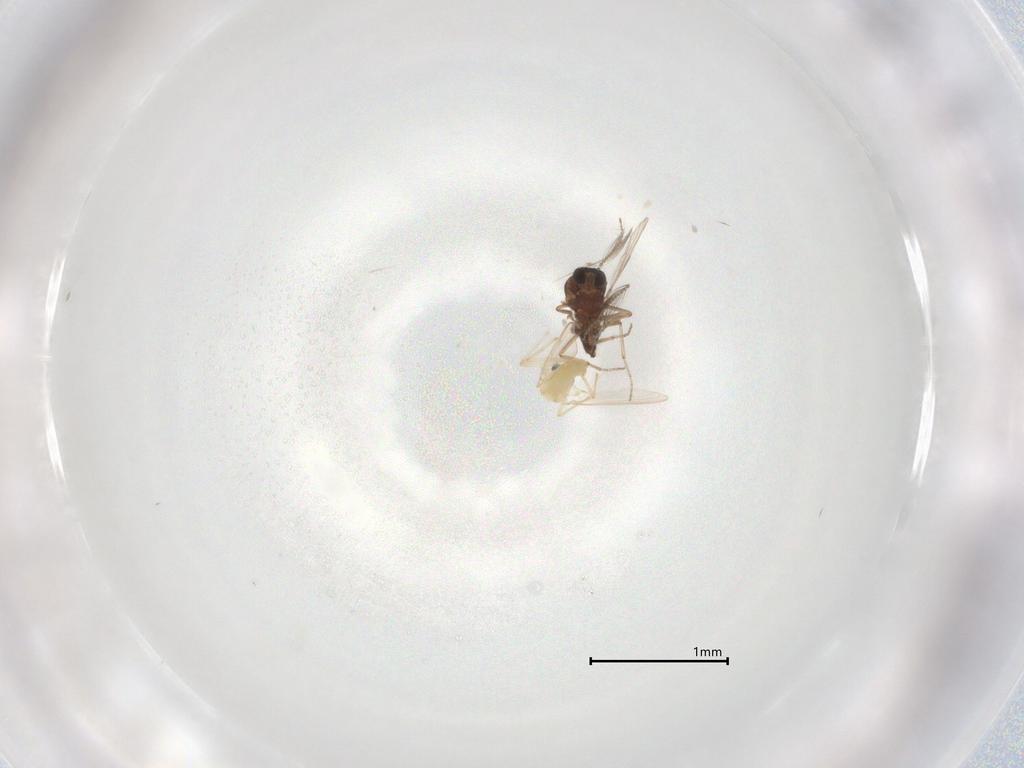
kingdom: Animalia
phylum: Arthropoda
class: Insecta
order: Diptera
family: Chironomidae
